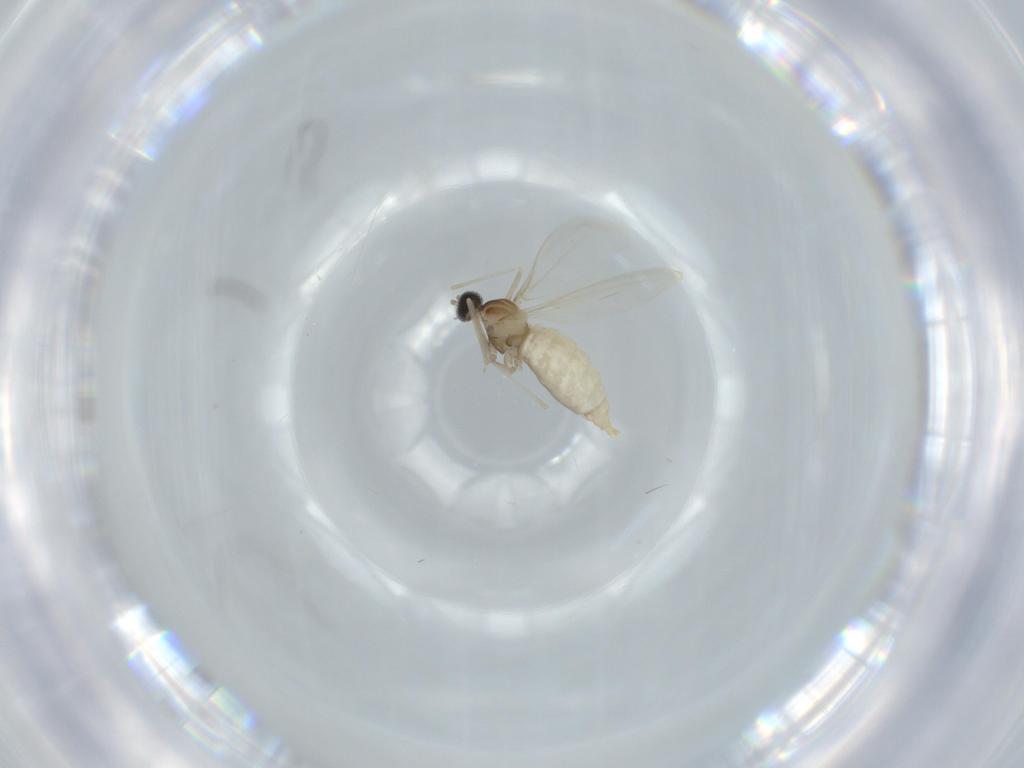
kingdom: Animalia
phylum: Arthropoda
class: Insecta
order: Diptera
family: Cecidomyiidae
